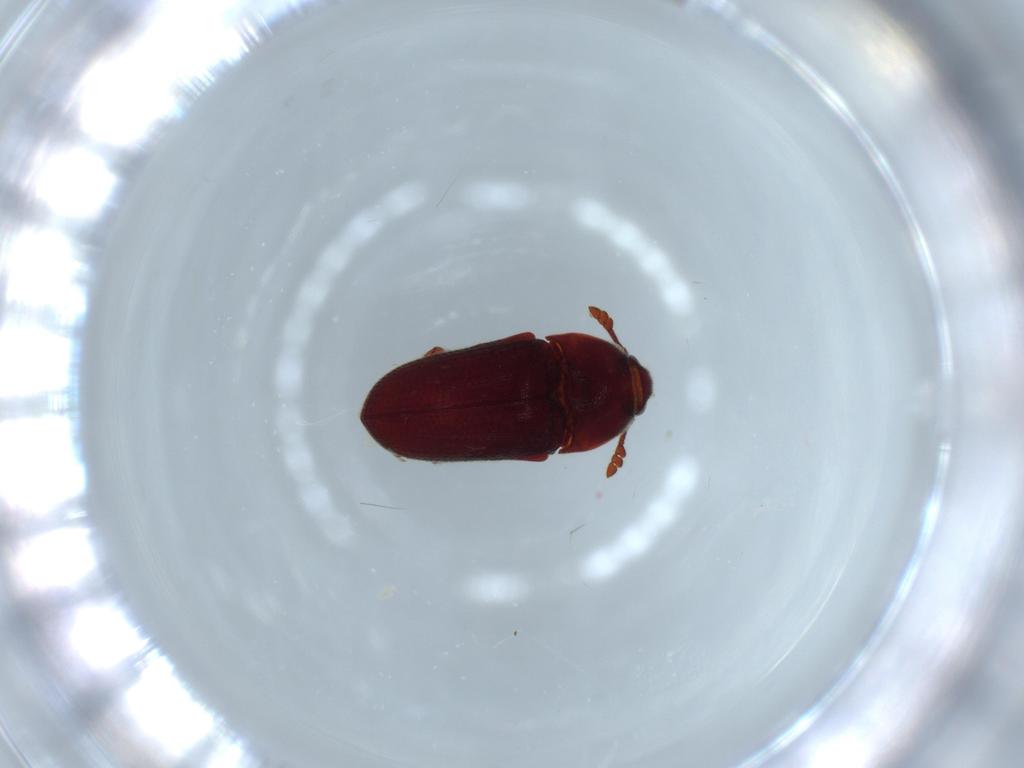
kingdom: Animalia
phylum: Arthropoda
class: Insecta
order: Coleoptera
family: Throscidae
